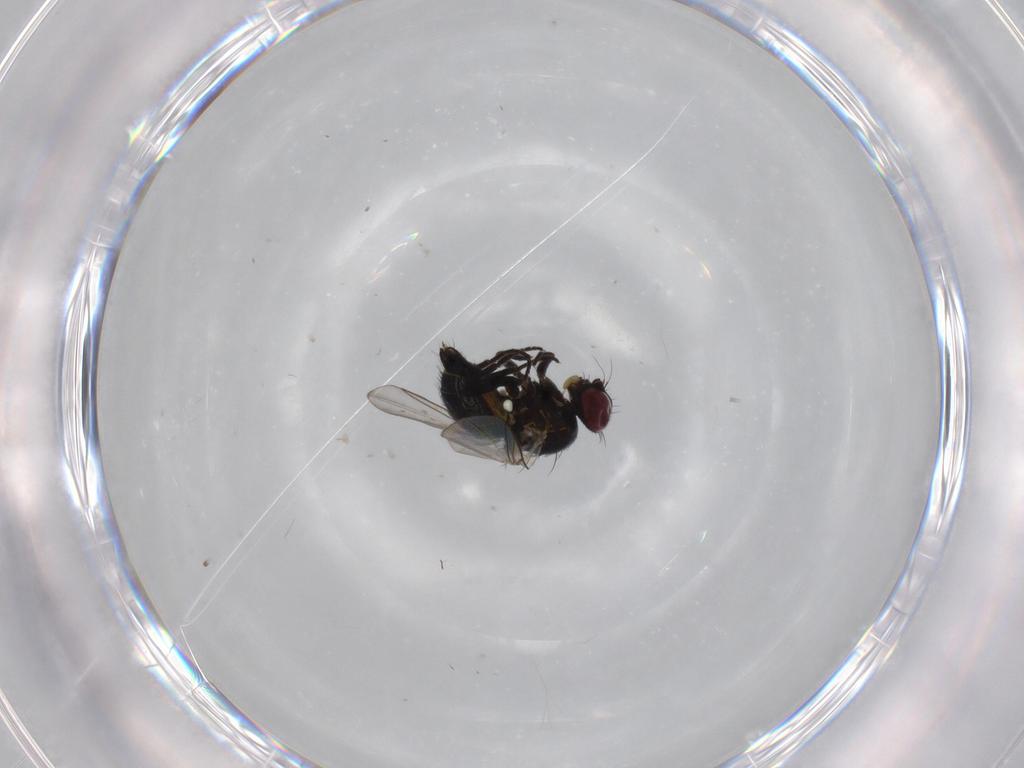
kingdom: Animalia
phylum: Arthropoda
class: Insecta
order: Diptera
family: Agromyzidae
